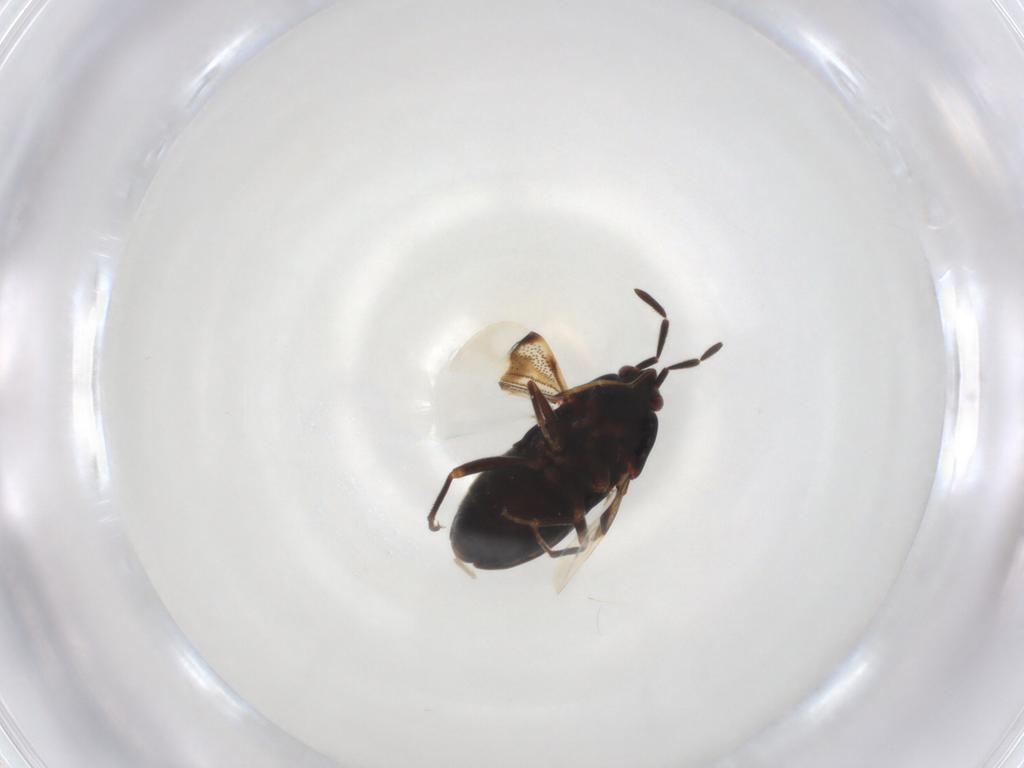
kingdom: Animalia
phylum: Arthropoda
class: Insecta
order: Hemiptera
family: Rhyparochromidae
